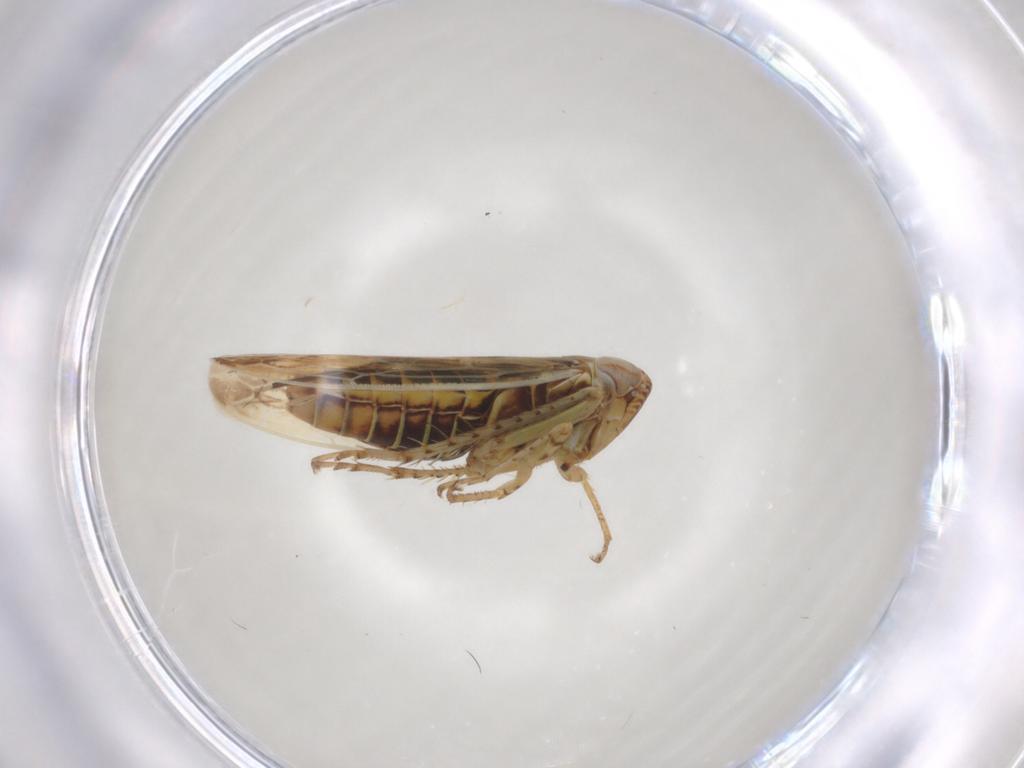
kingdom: Animalia
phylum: Arthropoda
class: Insecta
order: Hemiptera
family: Cicadellidae
